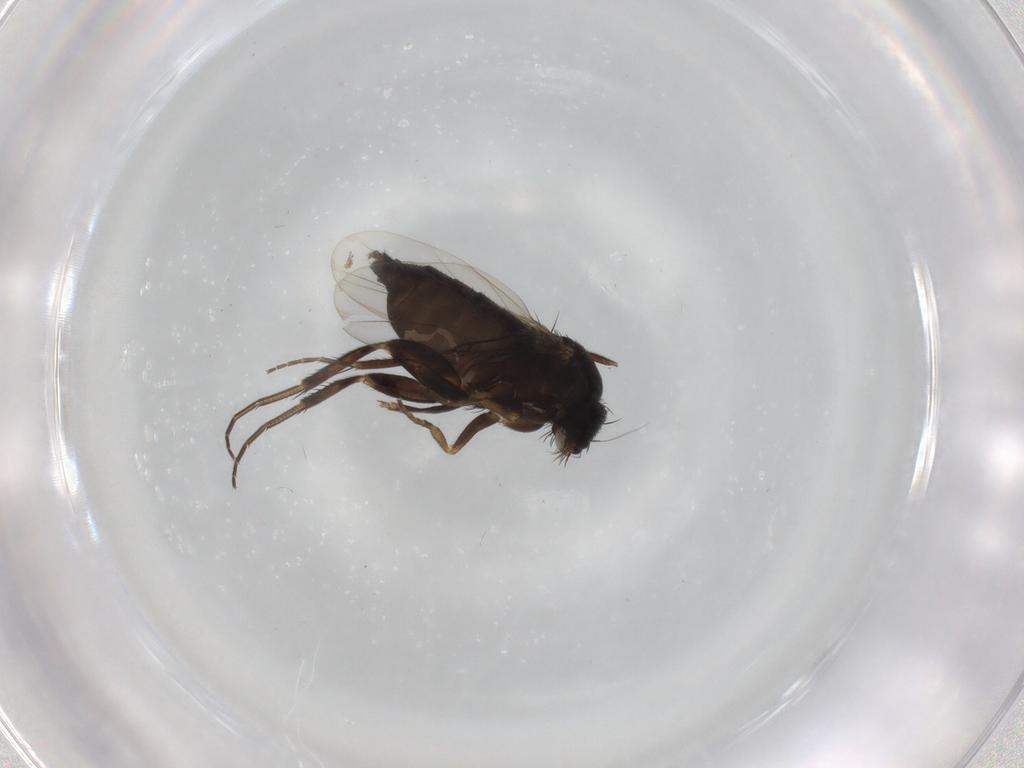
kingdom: Animalia
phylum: Arthropoda
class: Insecta
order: Diptera
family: Phoridae
